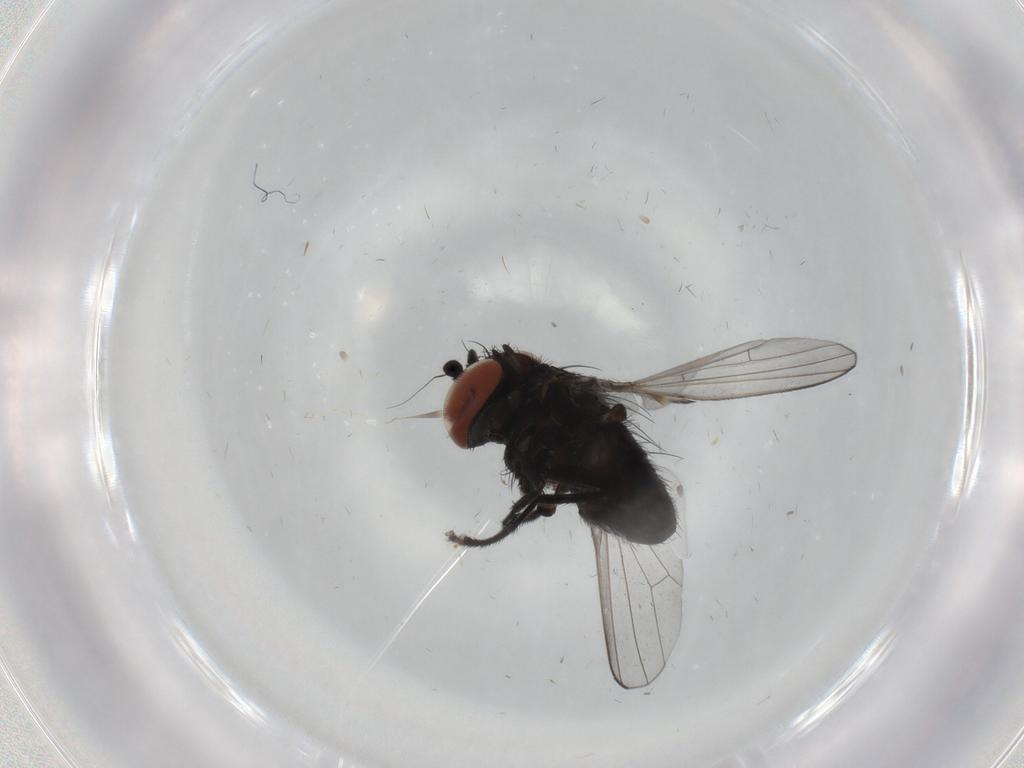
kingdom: Animalia
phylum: Arthropoda
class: Insecta
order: Diptera
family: Milichiidae
